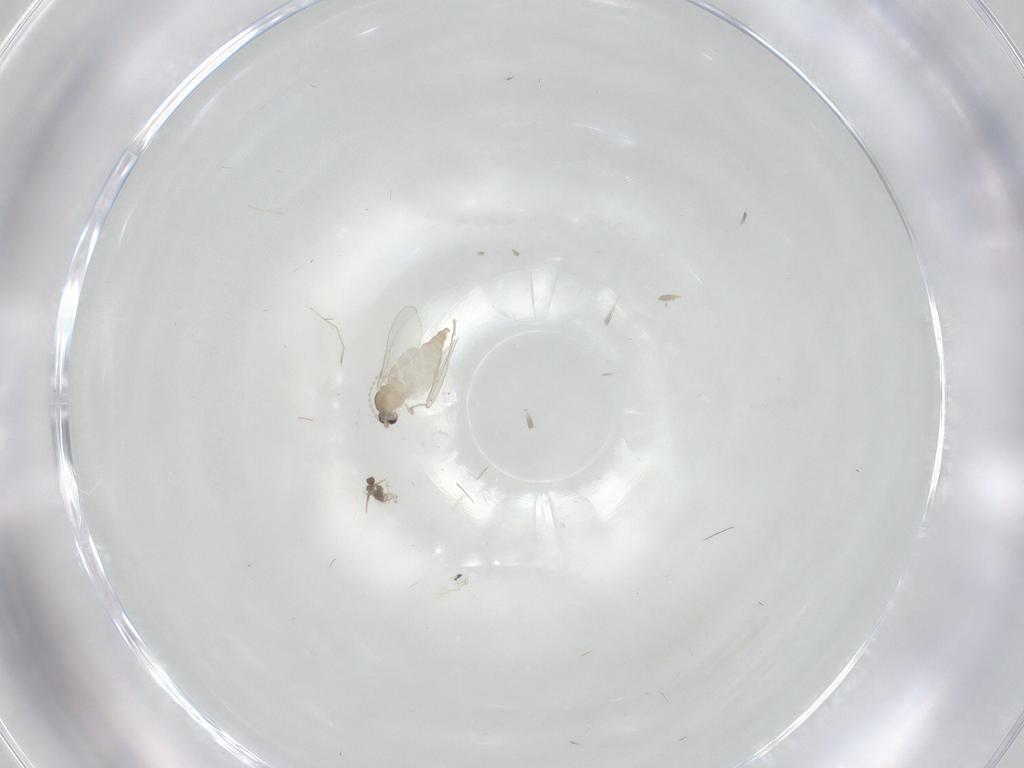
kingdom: Animalia
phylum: Arthropoda
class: Insecta
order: Diptera
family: Cecidomyiidae
